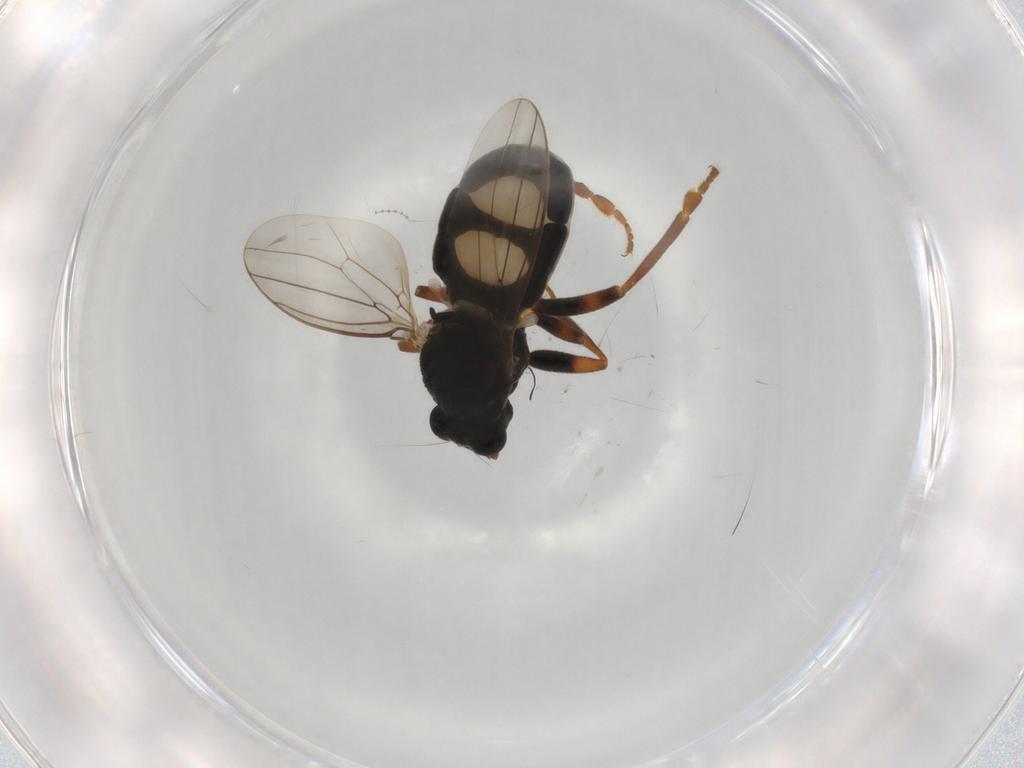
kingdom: Animalia
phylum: Arthropoda
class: Insecta
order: Diptera
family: Sphaeroceridae
